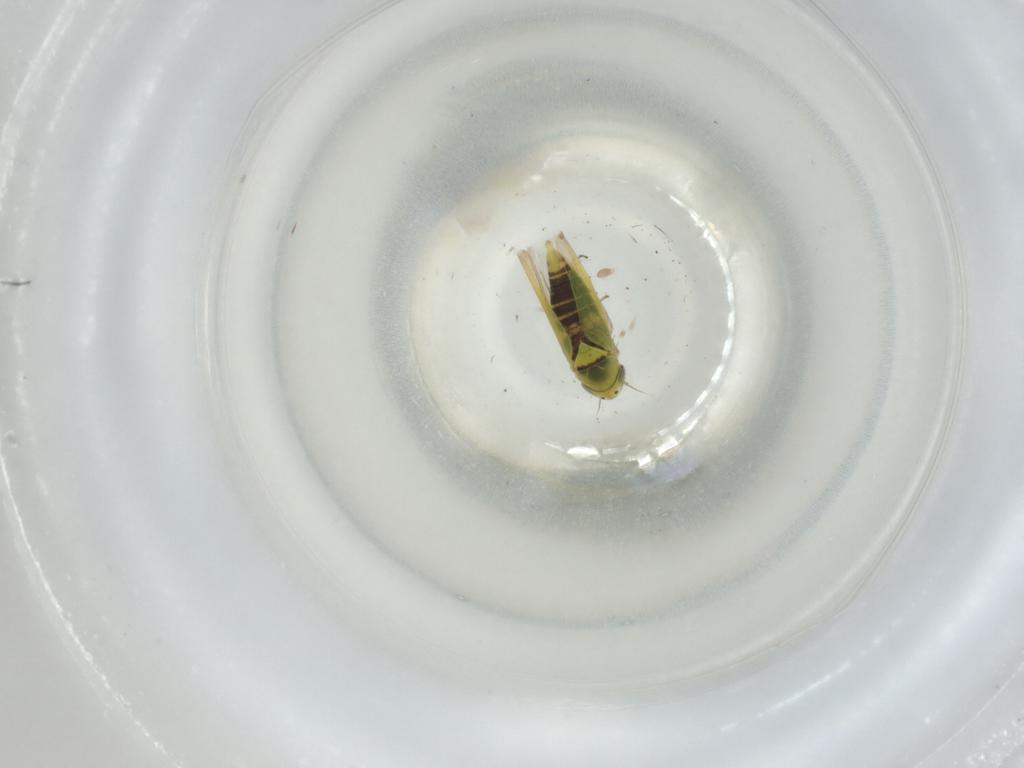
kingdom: Animalia
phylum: Arthropoda
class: Insecta
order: Hemiptera
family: Cicadellidae
